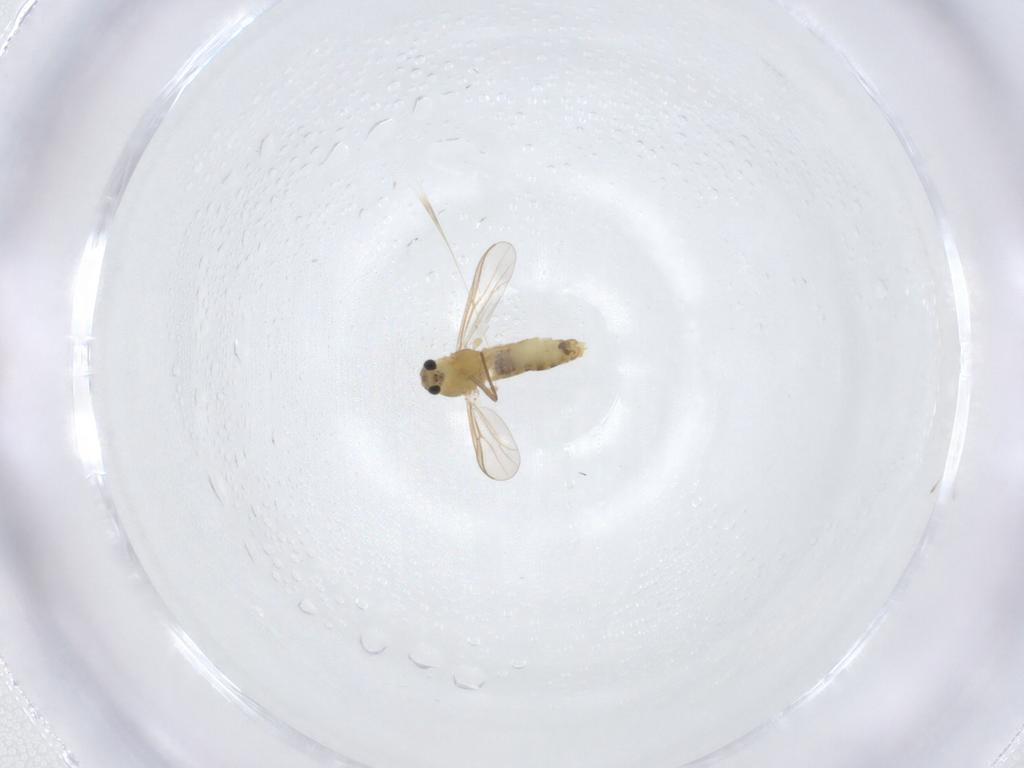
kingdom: Animalia
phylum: Arthropoda
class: Insecta
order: Diptera
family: Chironomidae
